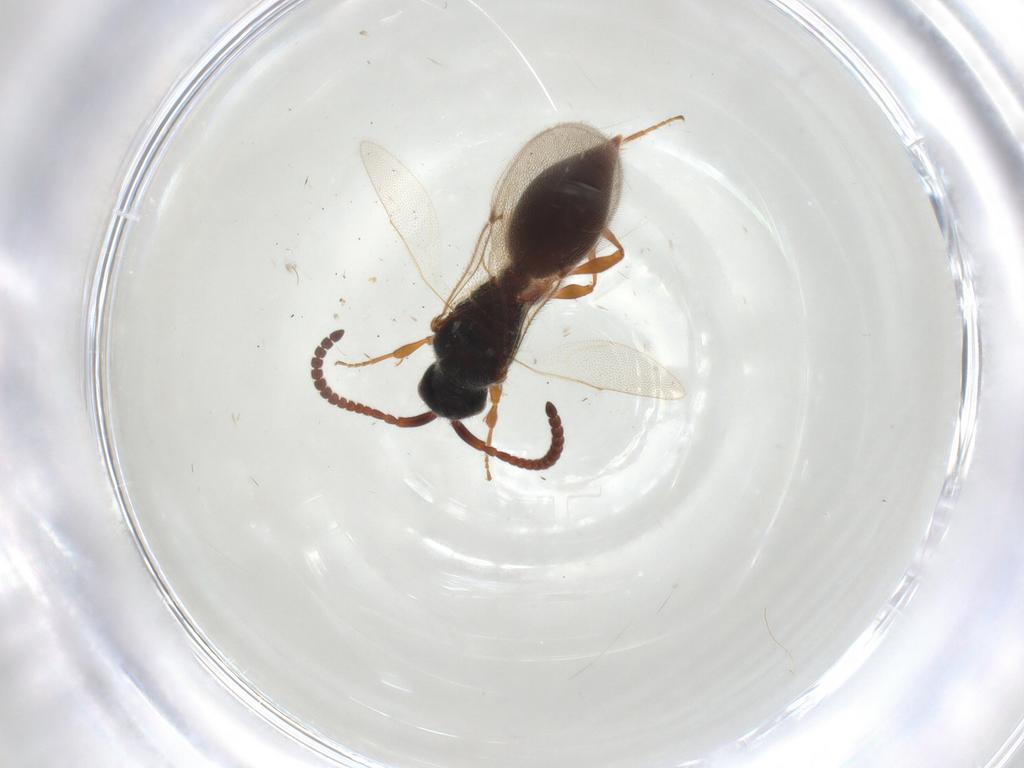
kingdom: Animalia
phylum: Arthropoda
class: Insecta
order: Hymenoptera
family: Diapriidae
